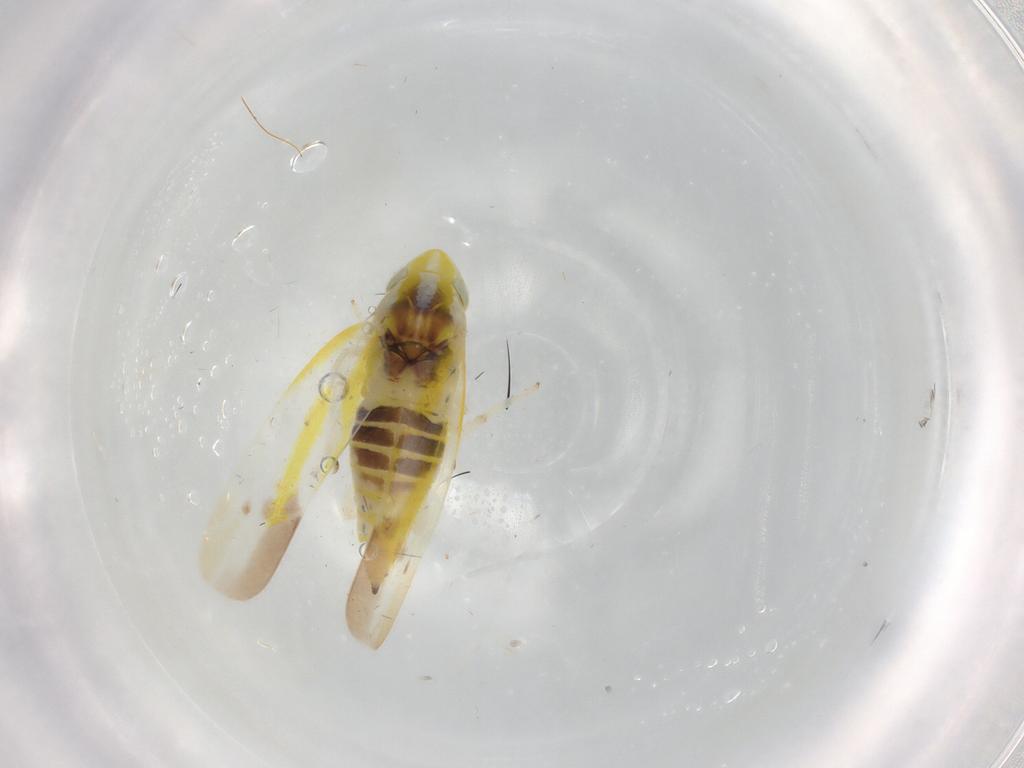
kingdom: Animalia
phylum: Arthropoda
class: Insecta
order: Hemiptera
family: Cicadellidae
